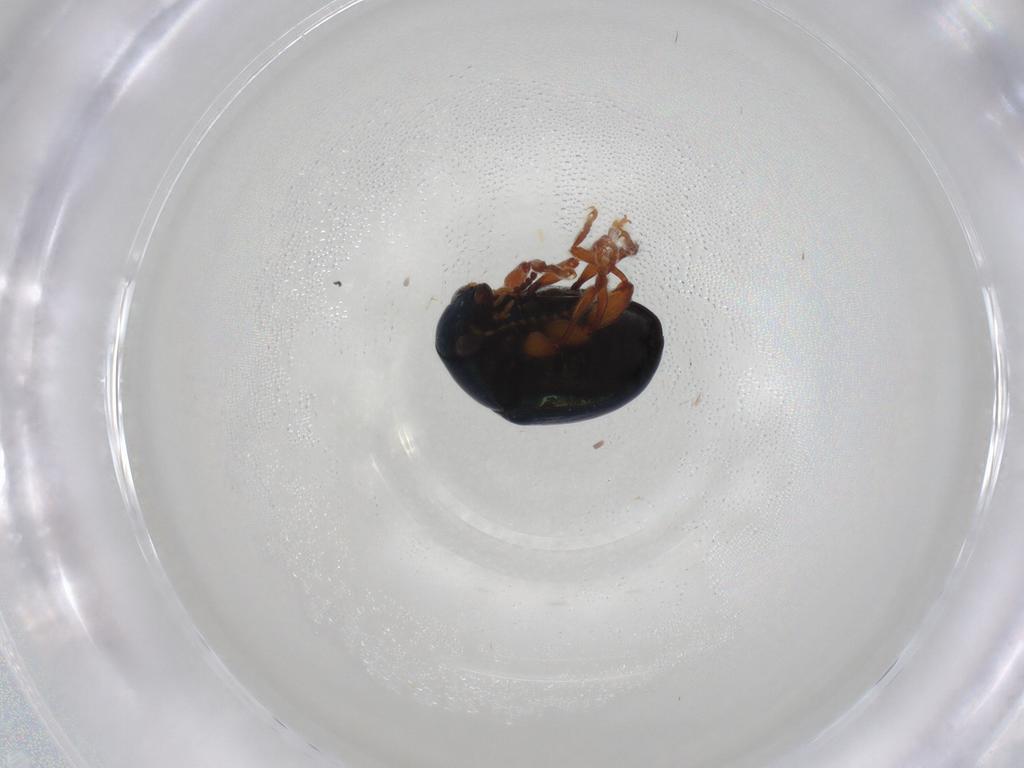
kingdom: Animalia
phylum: Arthropoda
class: Insecta
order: Coleoptera
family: Chrysomelidae
